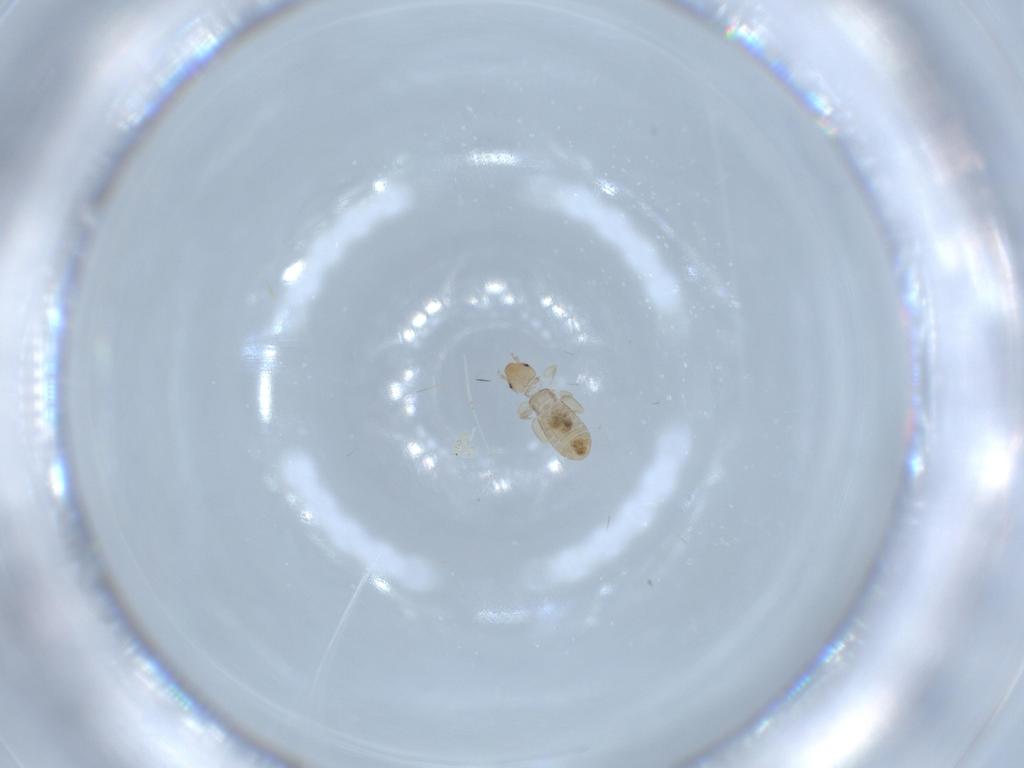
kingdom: Animalia
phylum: Arthropoda
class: Insecta
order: Psocodea
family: Liposcelididae
